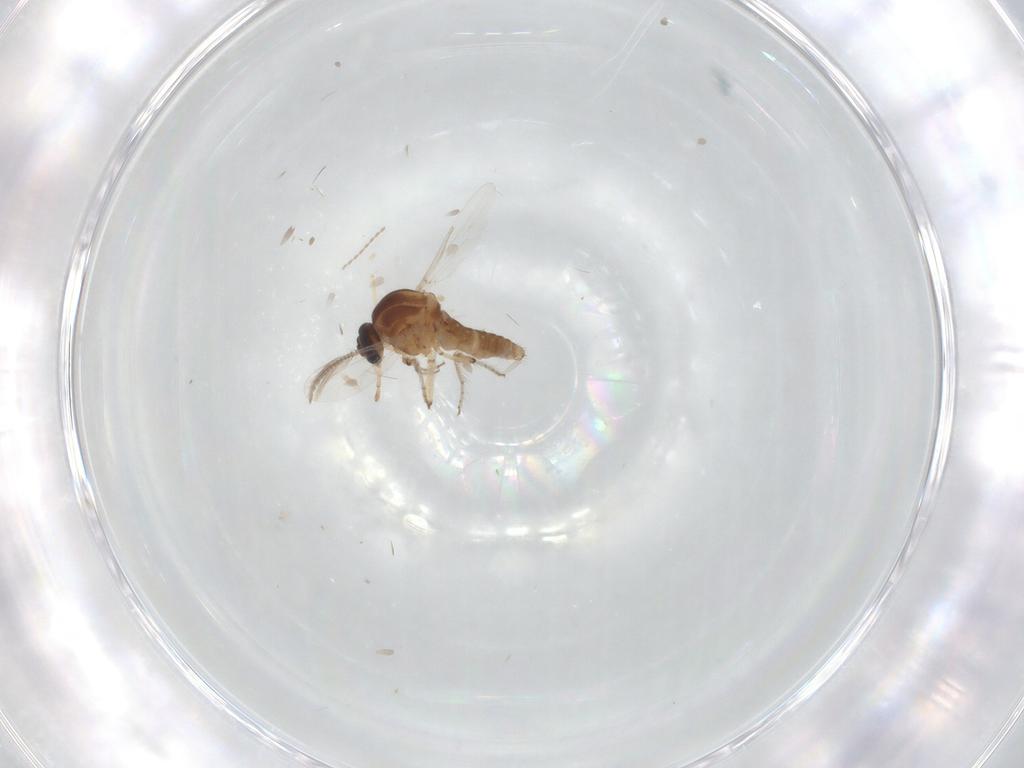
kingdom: Animalia
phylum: Arthropoda
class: Insecta
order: Diptera
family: Ceratopogonidae
